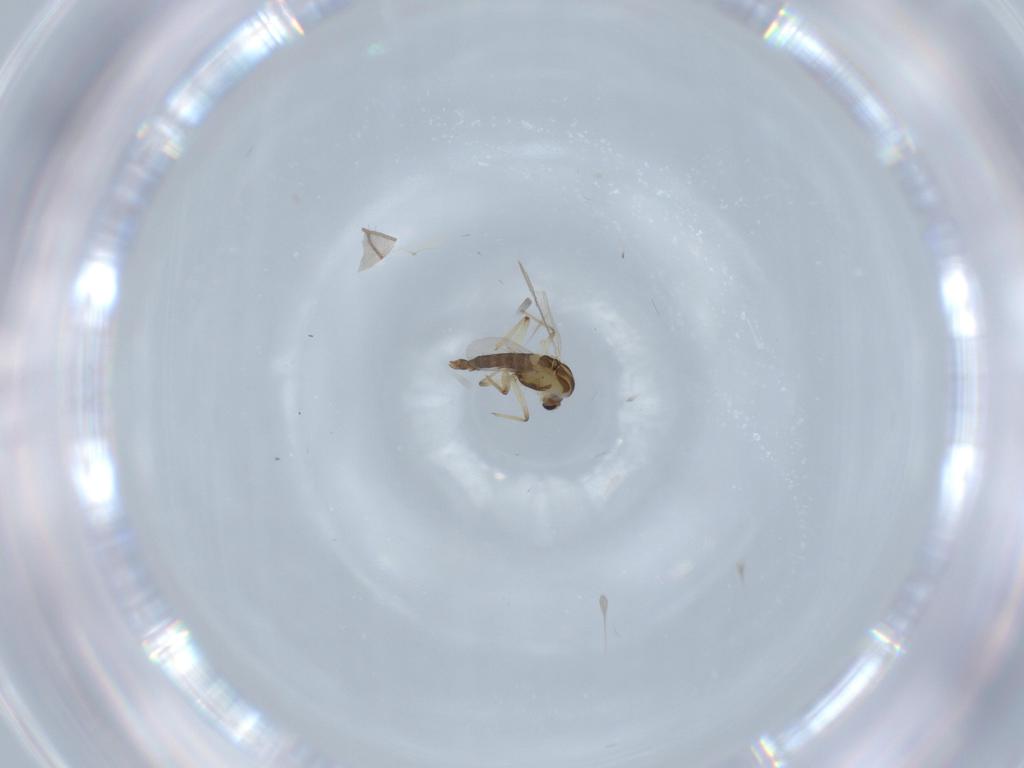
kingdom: Animalia
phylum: Arthropoda
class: Insecta
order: Diptera
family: Chironomidae
